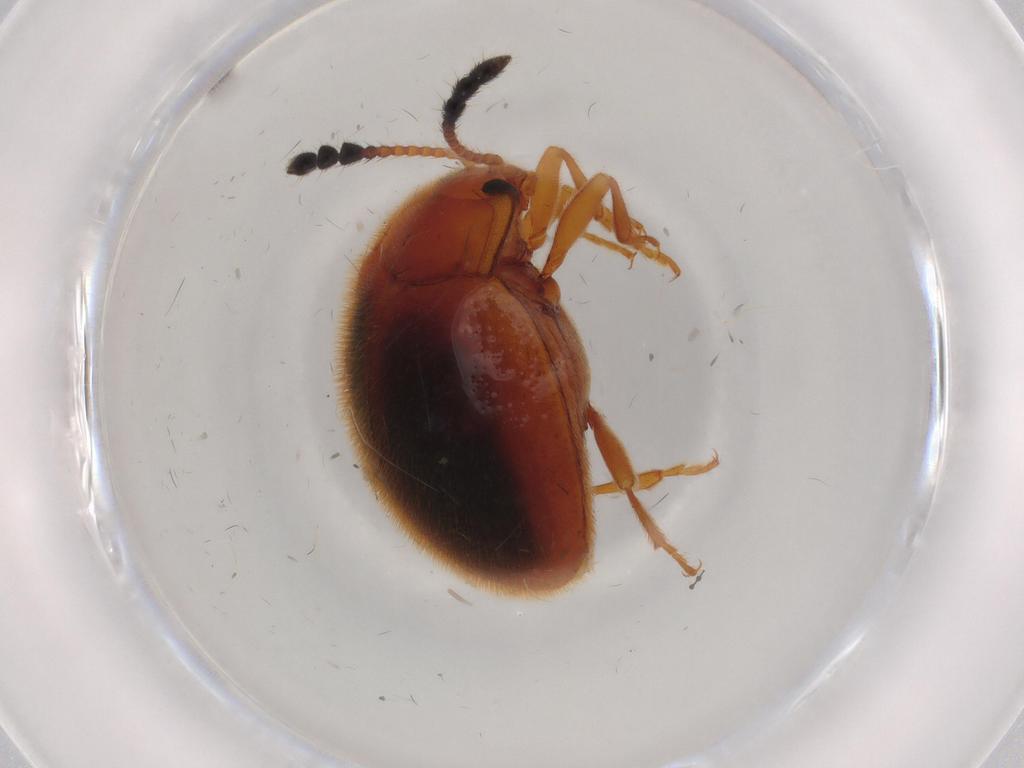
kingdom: Animalia
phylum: Arthropoda
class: Insecta
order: Coleoptera
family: Endomychidae
